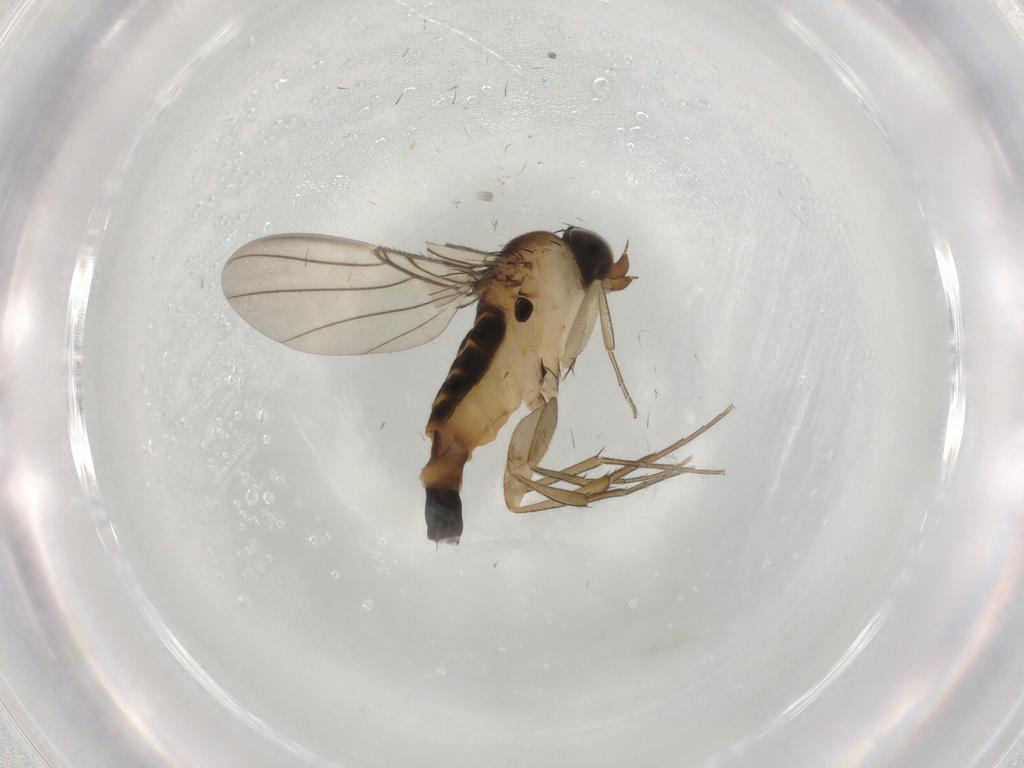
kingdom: Animalia
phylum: Arthropoda
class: Insecta
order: Diptera
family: Phoridae
